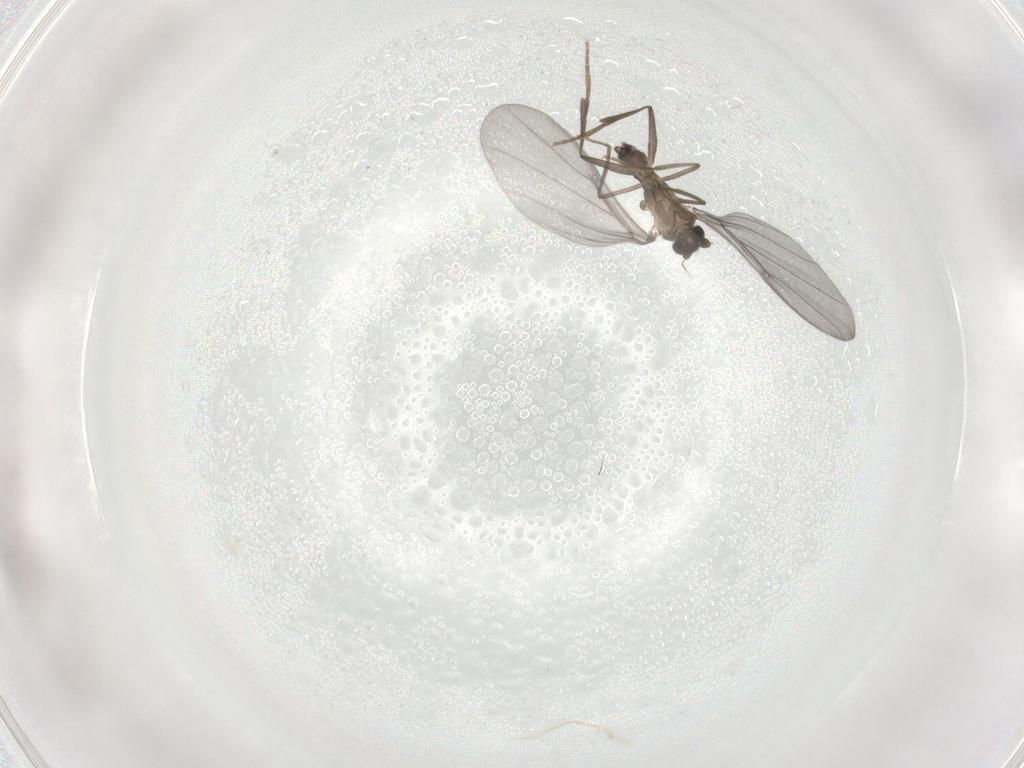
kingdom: Animalia
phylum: Arthropoda
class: Insecta
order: Diptera
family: Phoridae
